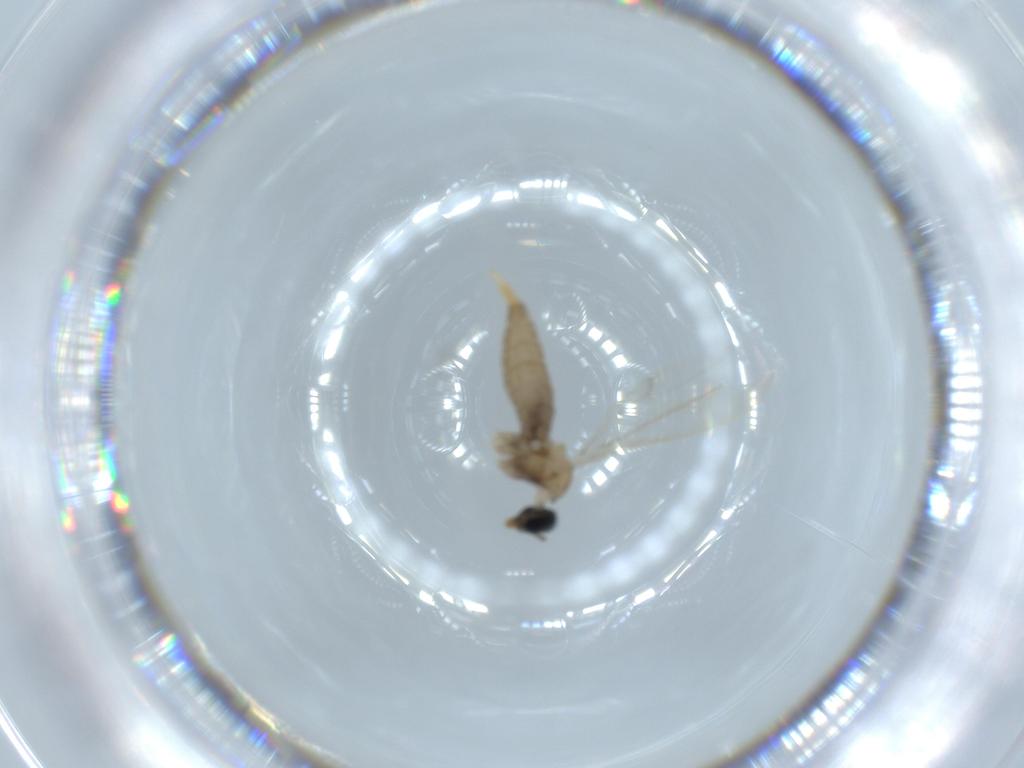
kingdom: Animalia
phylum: Arthropoda
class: Insecta
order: Diptera
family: Cecidomyiidae
